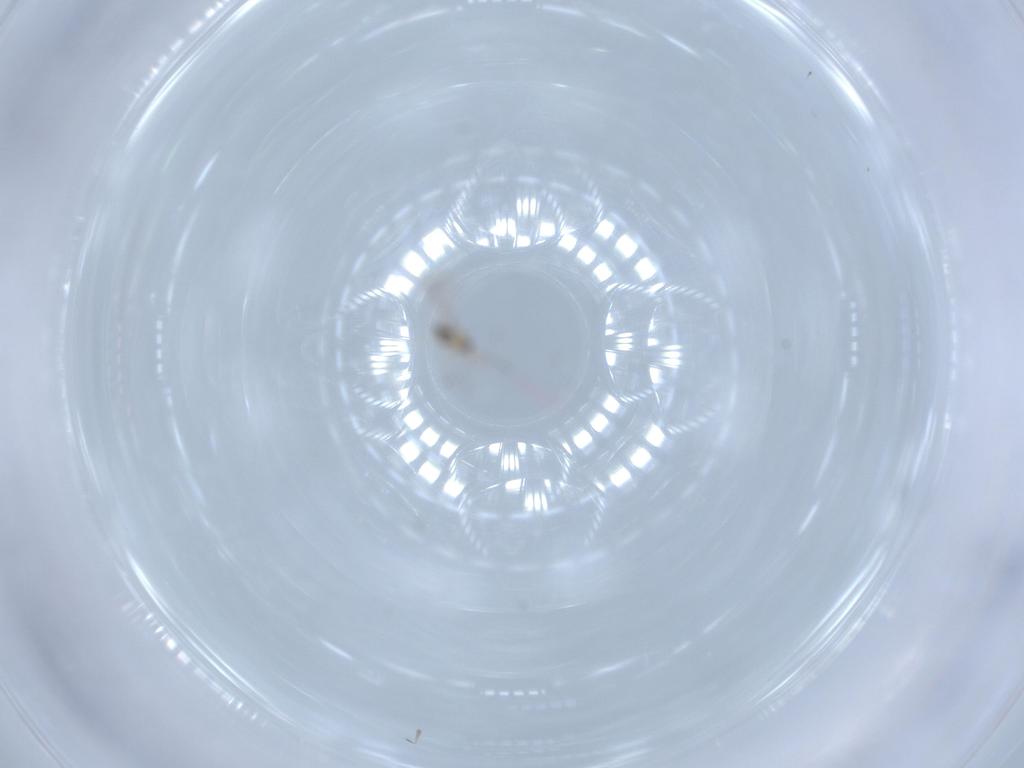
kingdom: Animalia
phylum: Arthropoda
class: Insecta
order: Hymenoptera
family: Mymaridae
